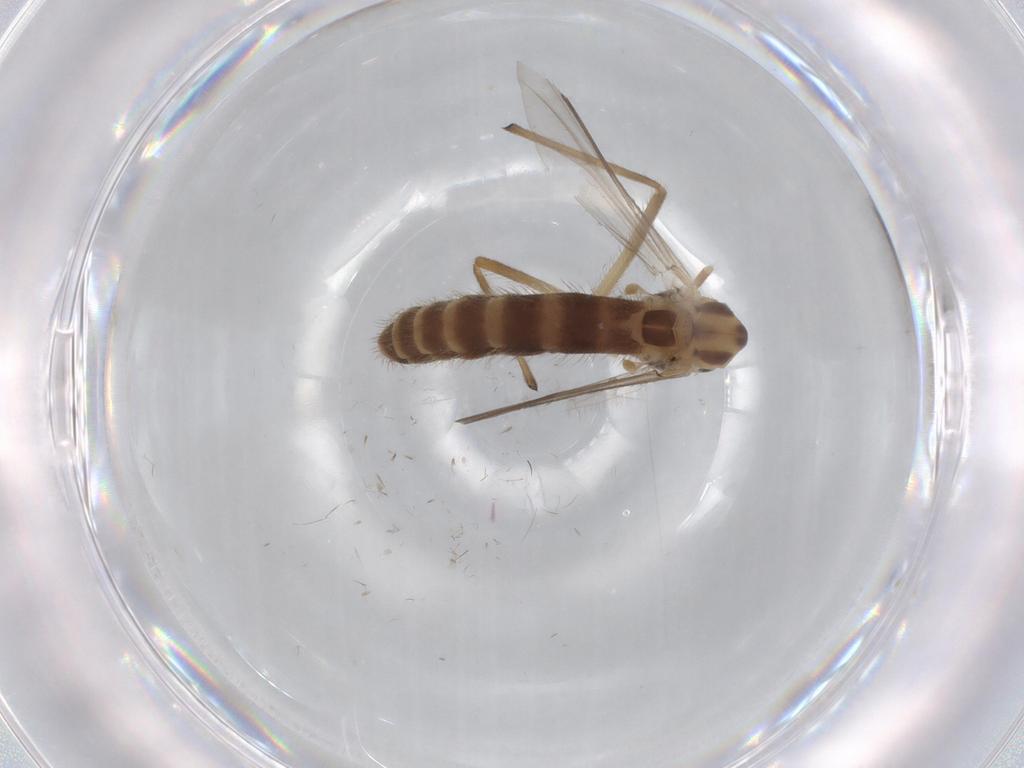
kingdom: Animalia
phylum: Arthropoda
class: Insecta
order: Diptera
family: Chironomidae
